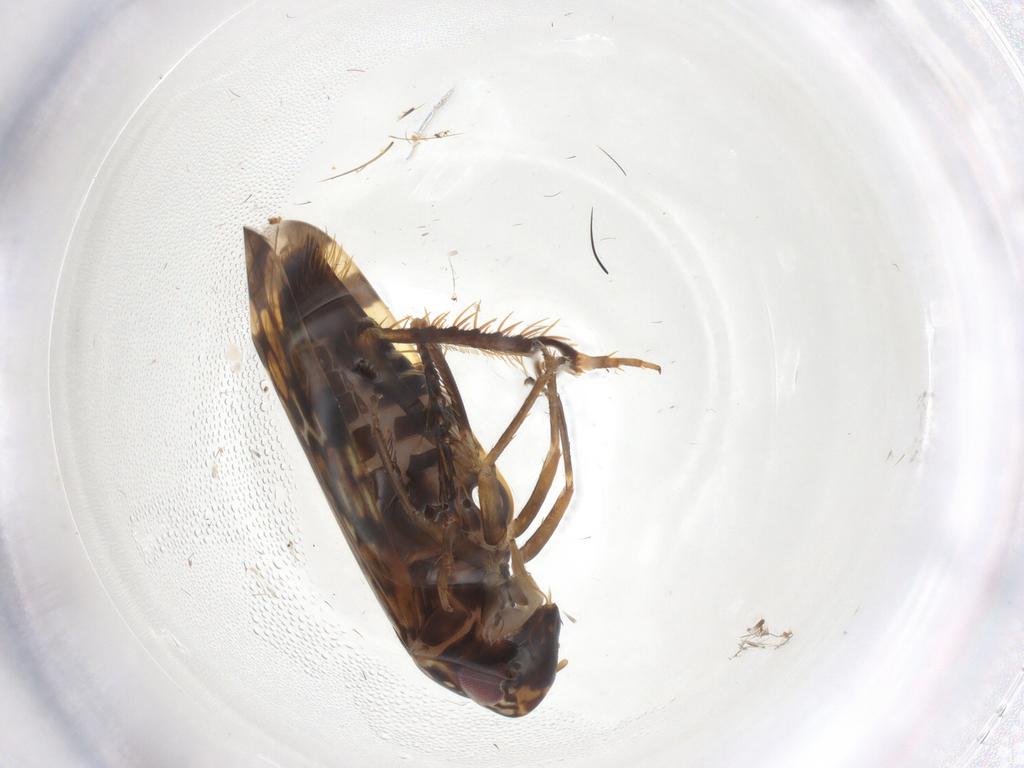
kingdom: Animalia
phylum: Arthropoda
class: Insecta
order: Hemiptera
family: Cicadellidae
